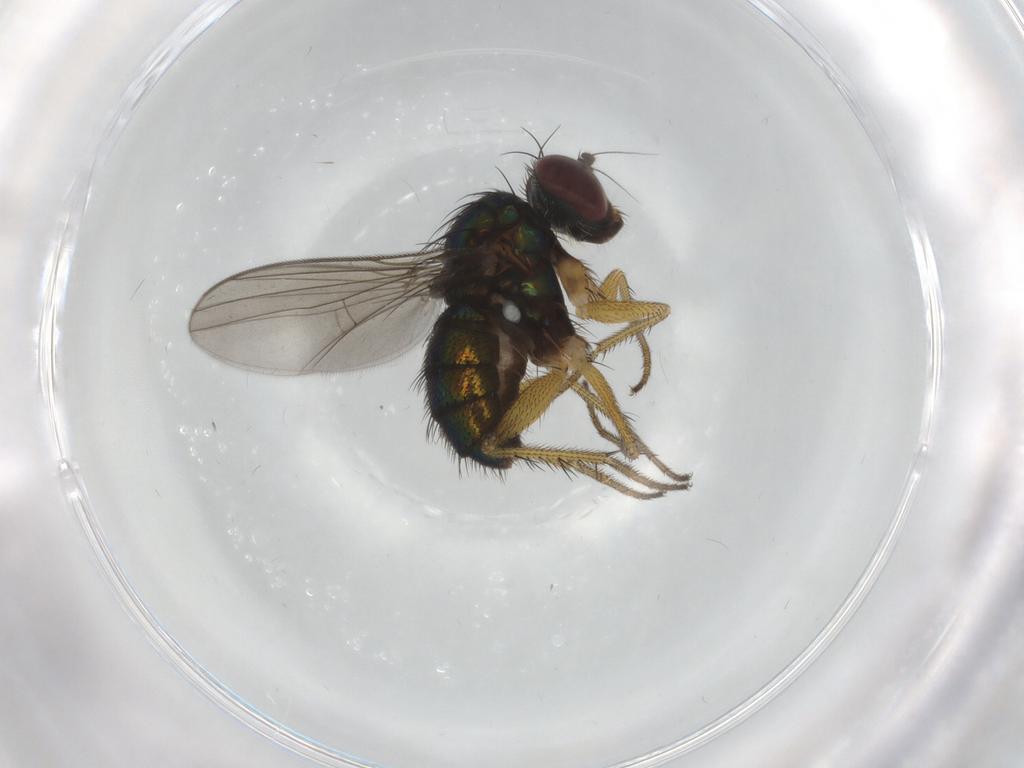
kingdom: Animalia
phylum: Arthropoda
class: Insecta
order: Diptera
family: Dolichopodidae
